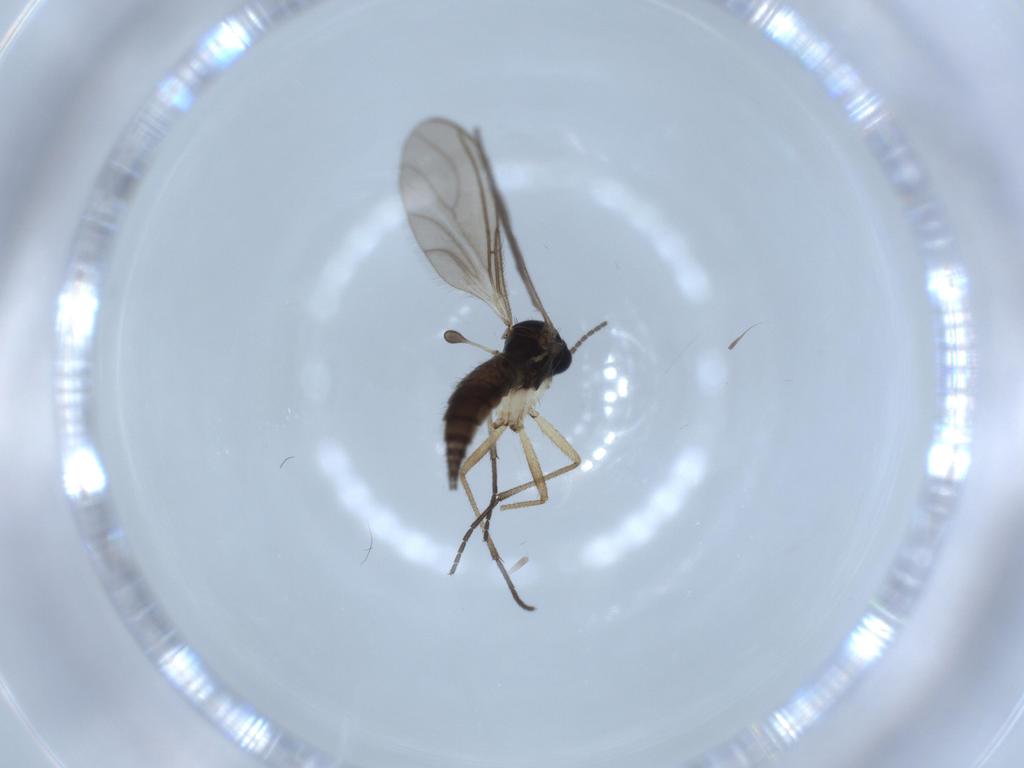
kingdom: Animalia
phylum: Arthropoda
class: Insecta
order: Diptera
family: Sciaridae
